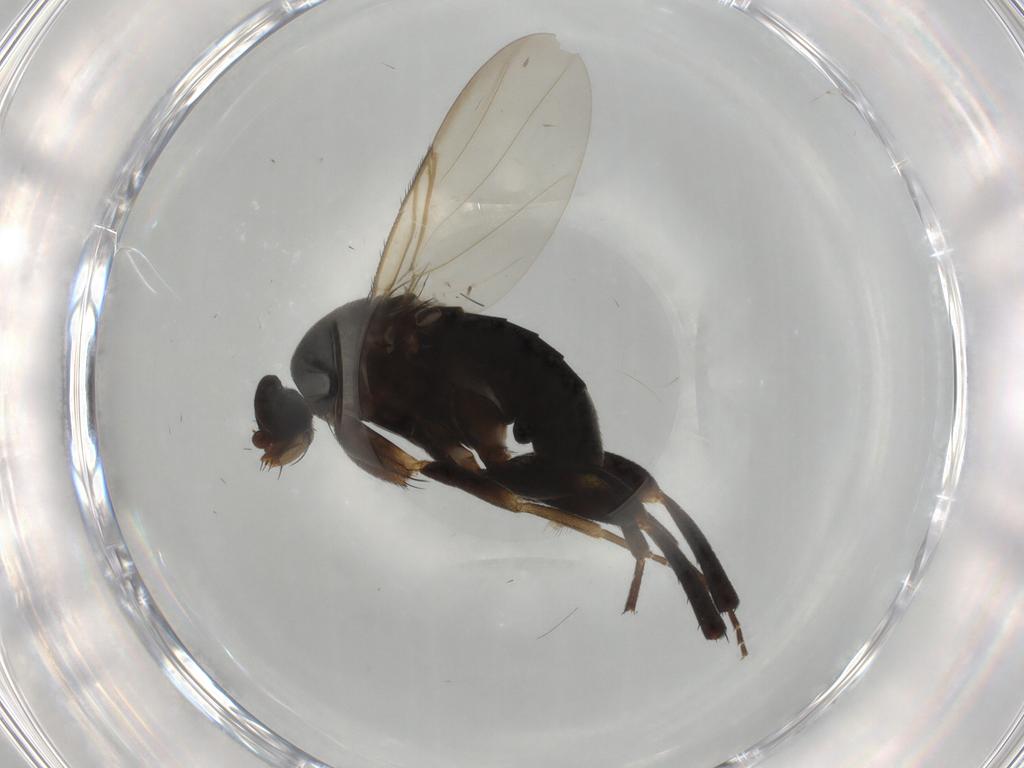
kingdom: Animalia
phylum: Arthropoda
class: Insecta
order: Diptera
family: Phoridae
